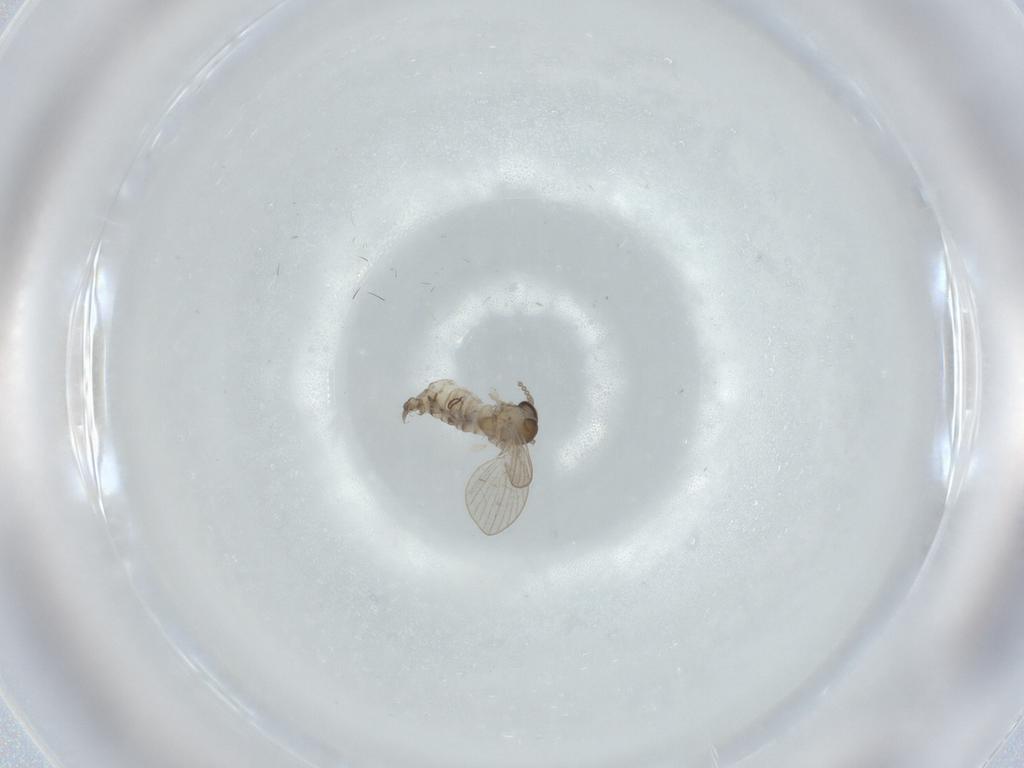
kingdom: Animalia
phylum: Arthropoda
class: Insecta
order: Diptera
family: Psychodidae
